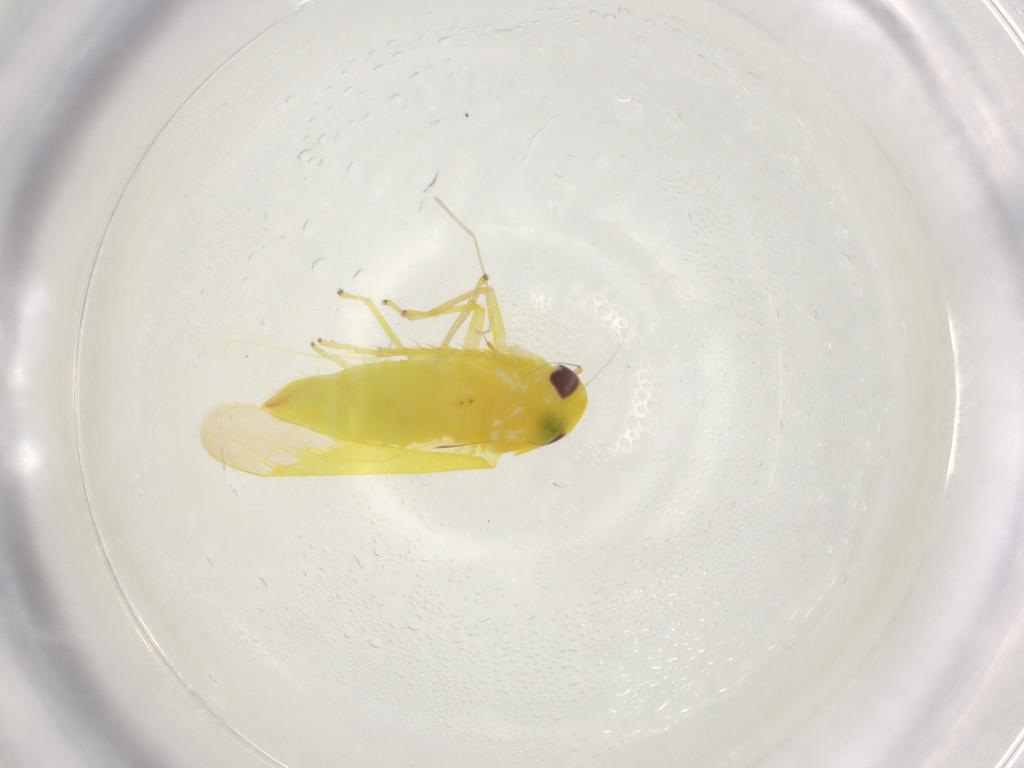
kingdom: Animalia
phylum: Arthropoda
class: Insecta
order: Hemiptera
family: Cicadellidae
